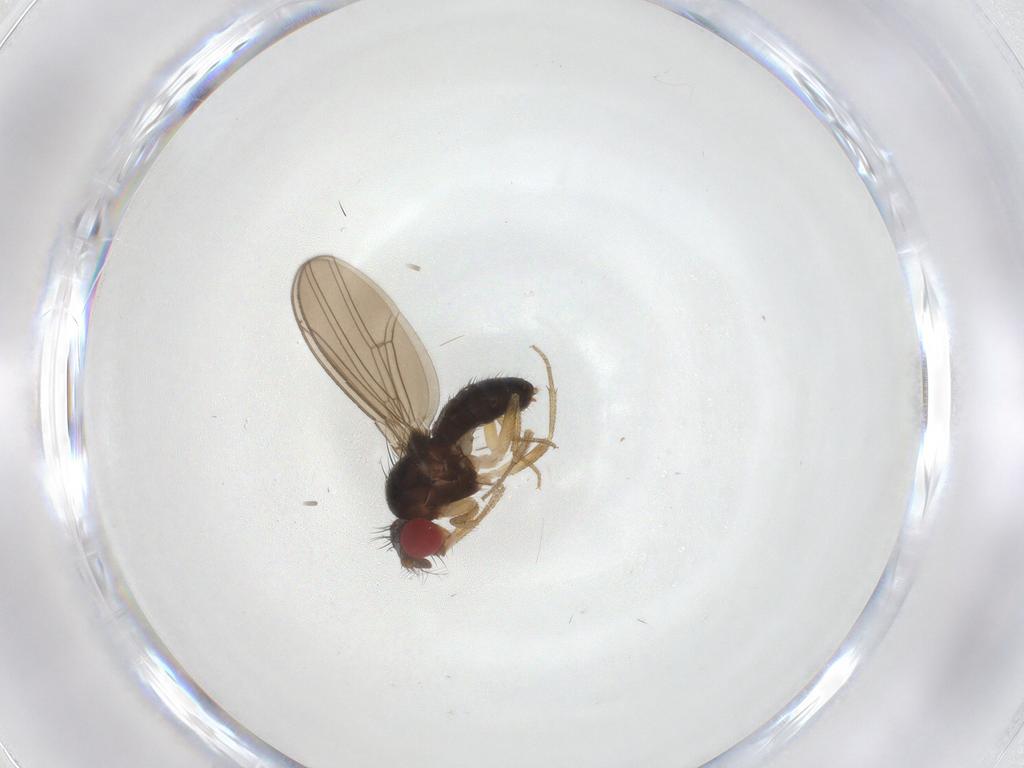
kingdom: Animalia
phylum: Arthropoda
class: Insecta
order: Diptera
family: Drosophilidae
